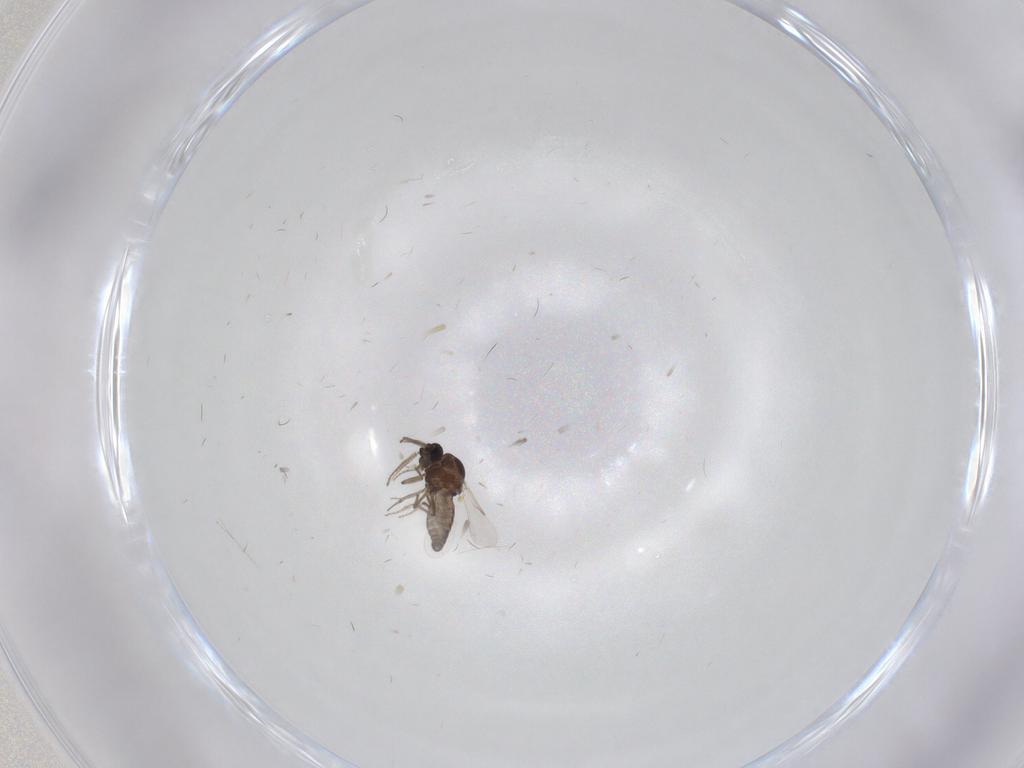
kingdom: Animalia
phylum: Arthropoda
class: Insecta
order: Diptera
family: Ceratopogonidae
